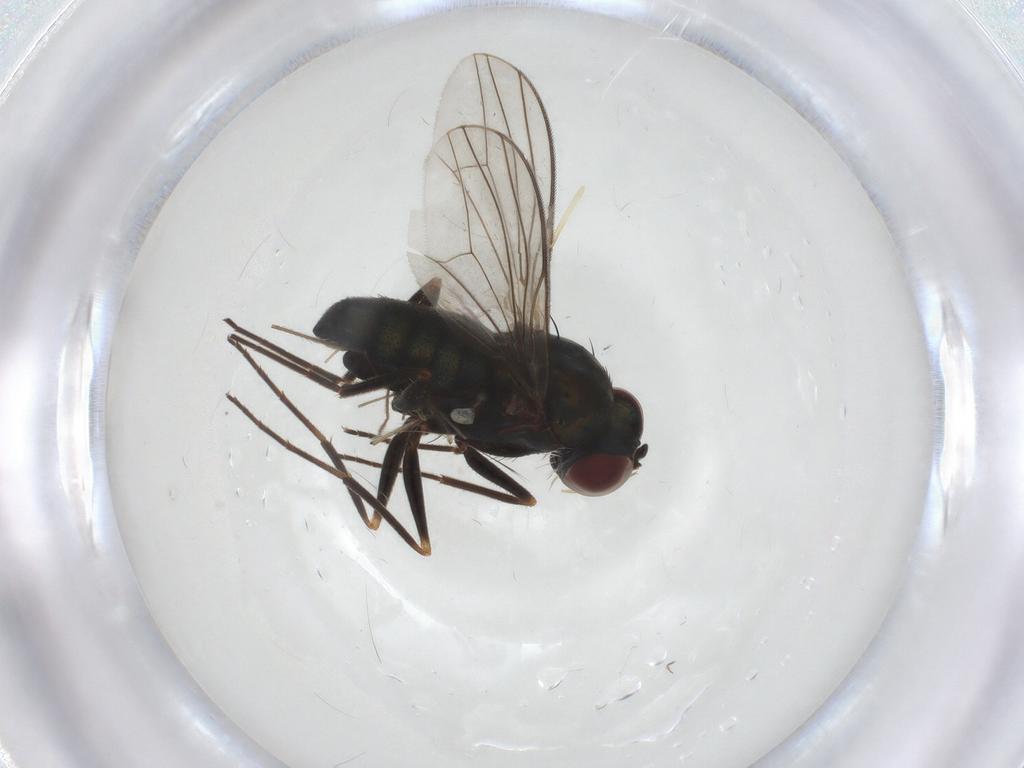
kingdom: Animalia
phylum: Arthropoda
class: Insecta
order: Diptera
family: Dolichopodidae
